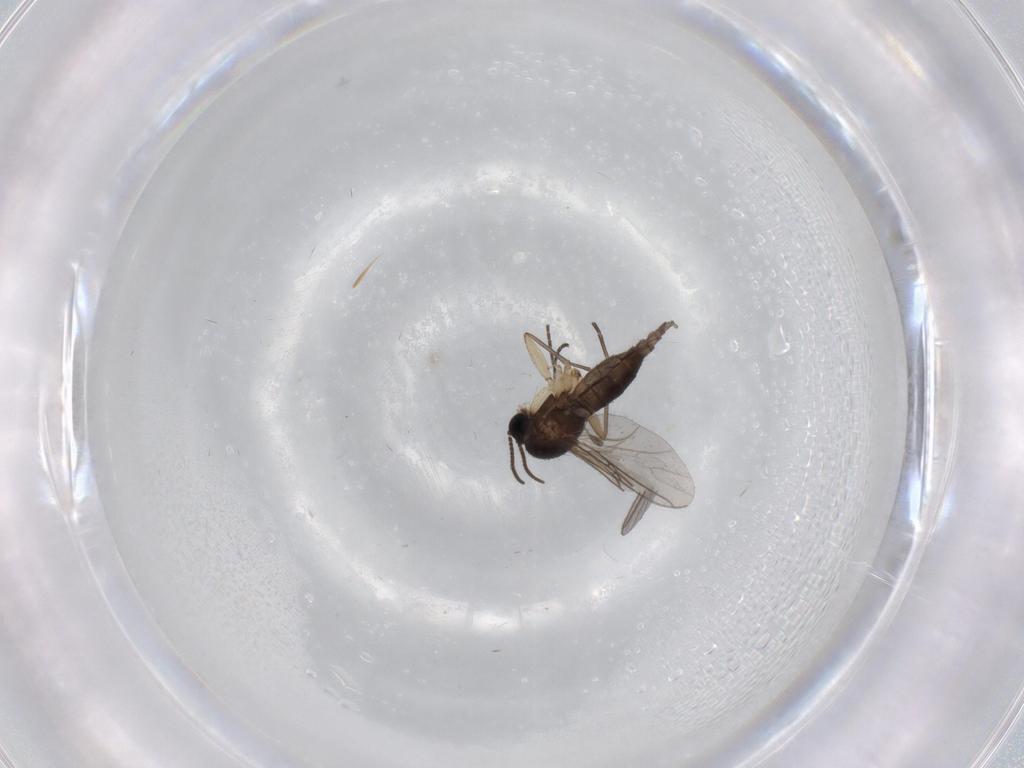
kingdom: Animalia
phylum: Arthropoda
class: Insecta
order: Diptera
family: Sciaridae
